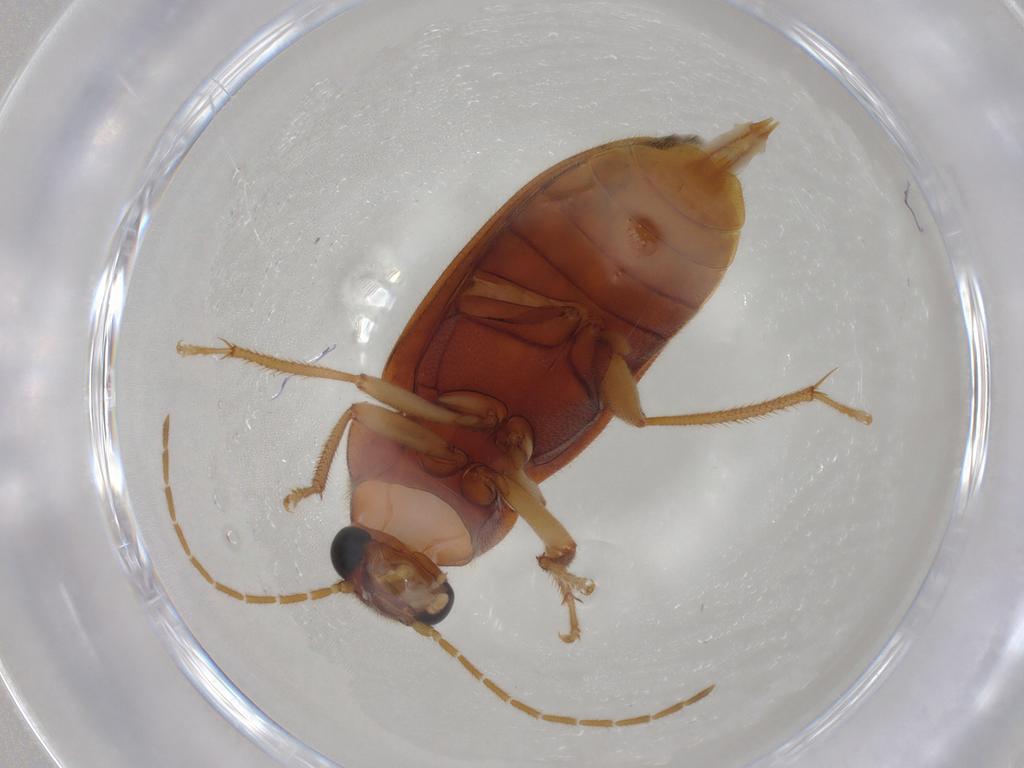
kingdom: Animalia
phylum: Arthropoda
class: Insecta
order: Coleoptera
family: Ptilodactylidae
